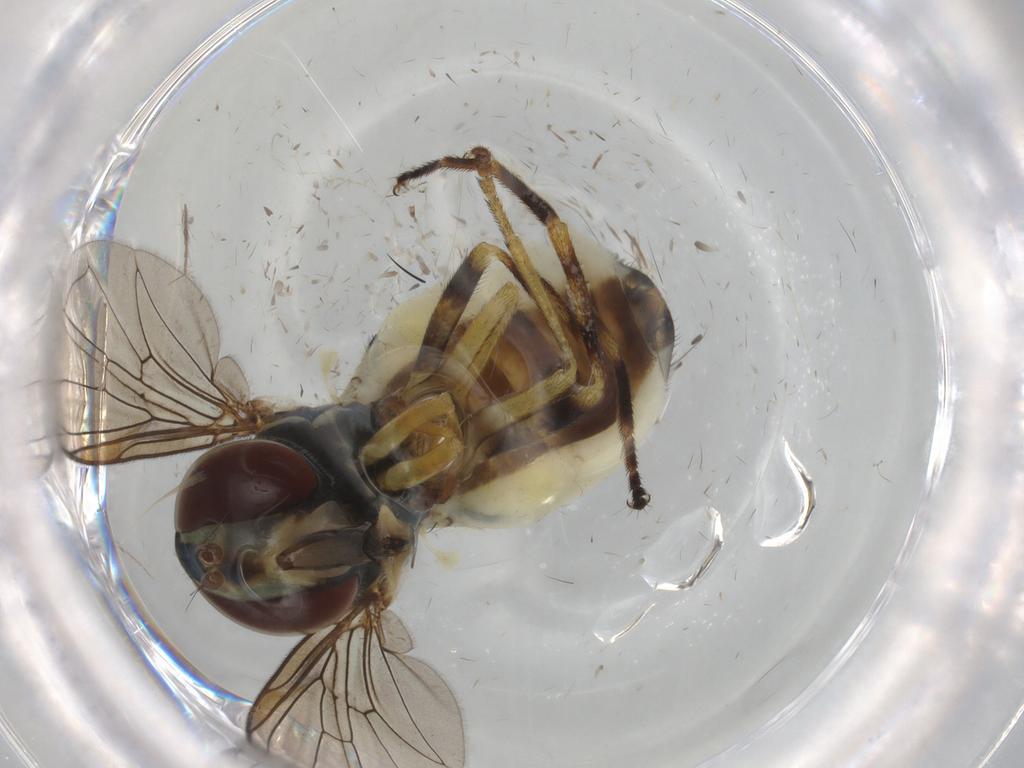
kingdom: Animalia
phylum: Arthropoda
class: Insecta
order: Diptera
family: Syrphidae
